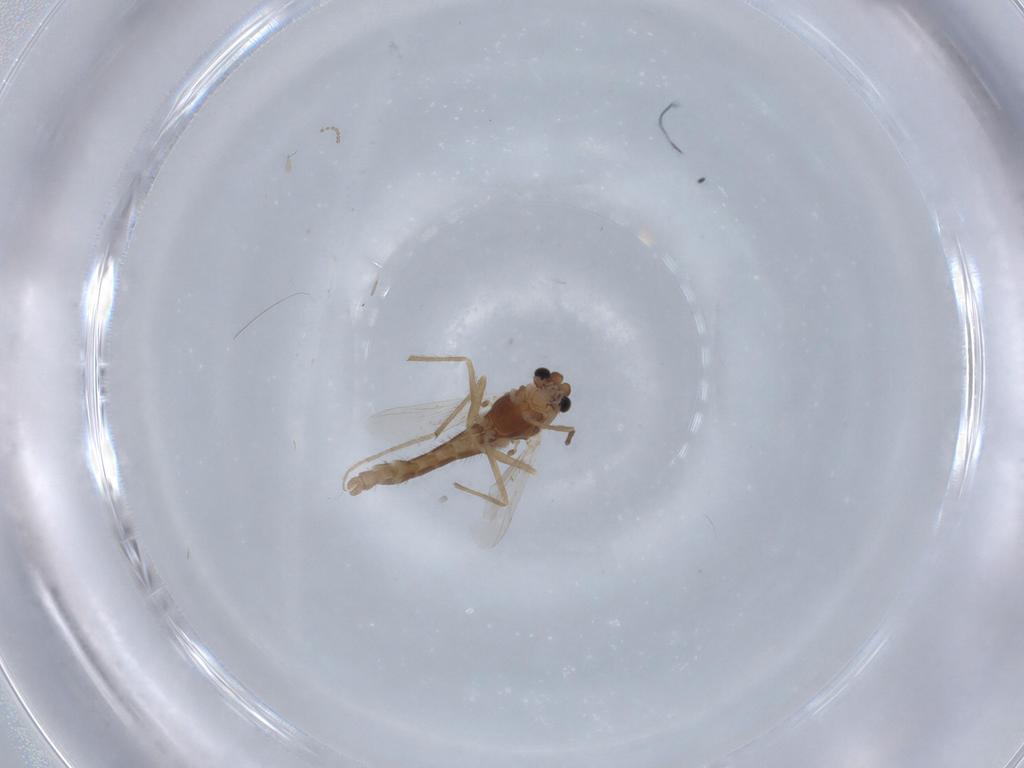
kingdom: Animalia
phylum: Arthropoda
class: Insecta
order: Diptera
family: Chironomidae
